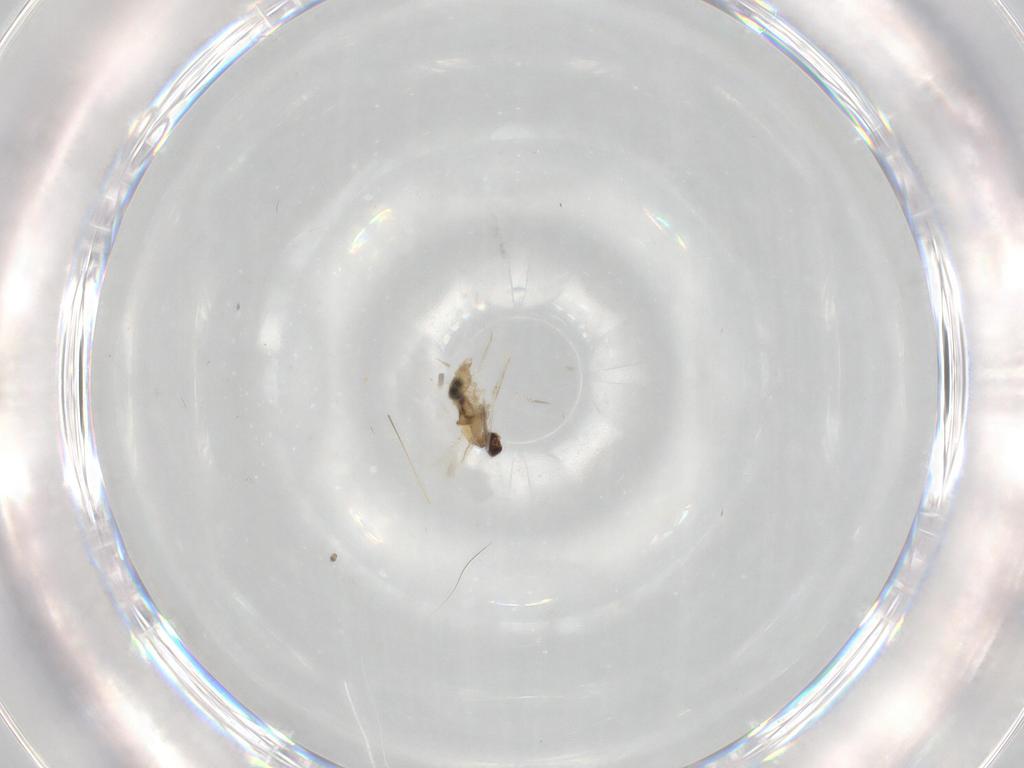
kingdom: Animalia
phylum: Arthropoda
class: Insecta
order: Diptera
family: Cecidomyiidae
